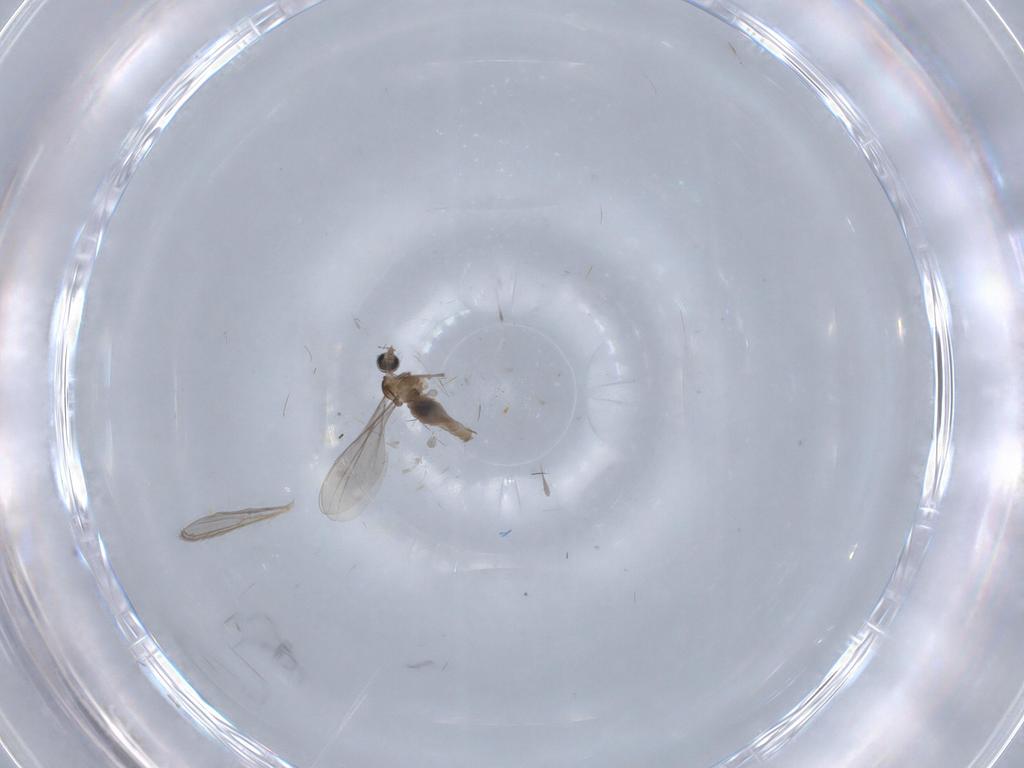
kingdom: Animalia
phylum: Arthropoda
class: Insecta
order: Diptera
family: Cecidomyiidae
